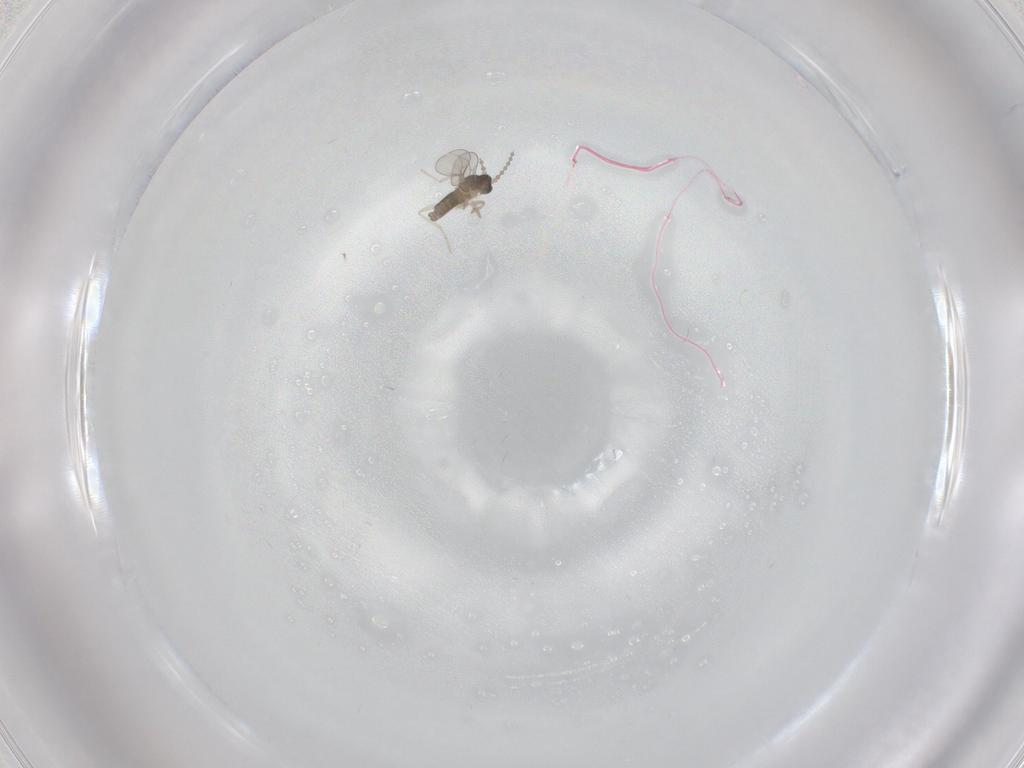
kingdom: Animalia
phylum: Arthropoda
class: Insecta
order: Diptera
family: Cecidomyiidae
